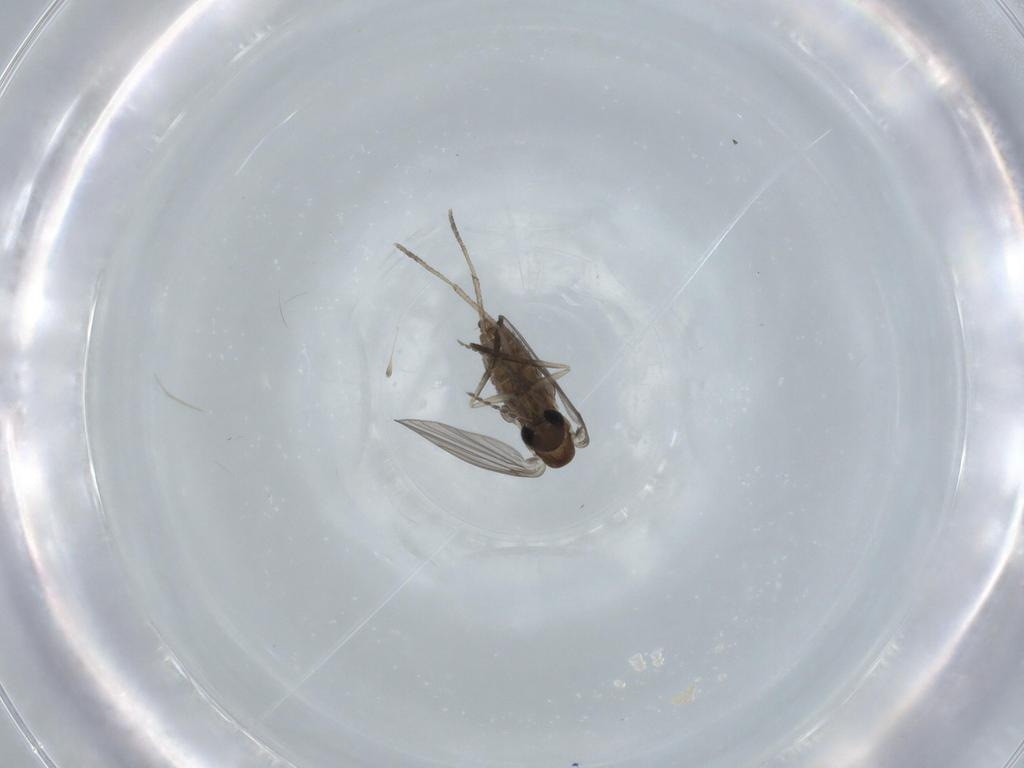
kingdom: Animalia
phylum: Arthropoda
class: Insecta
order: Diptera
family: Psychodidae
